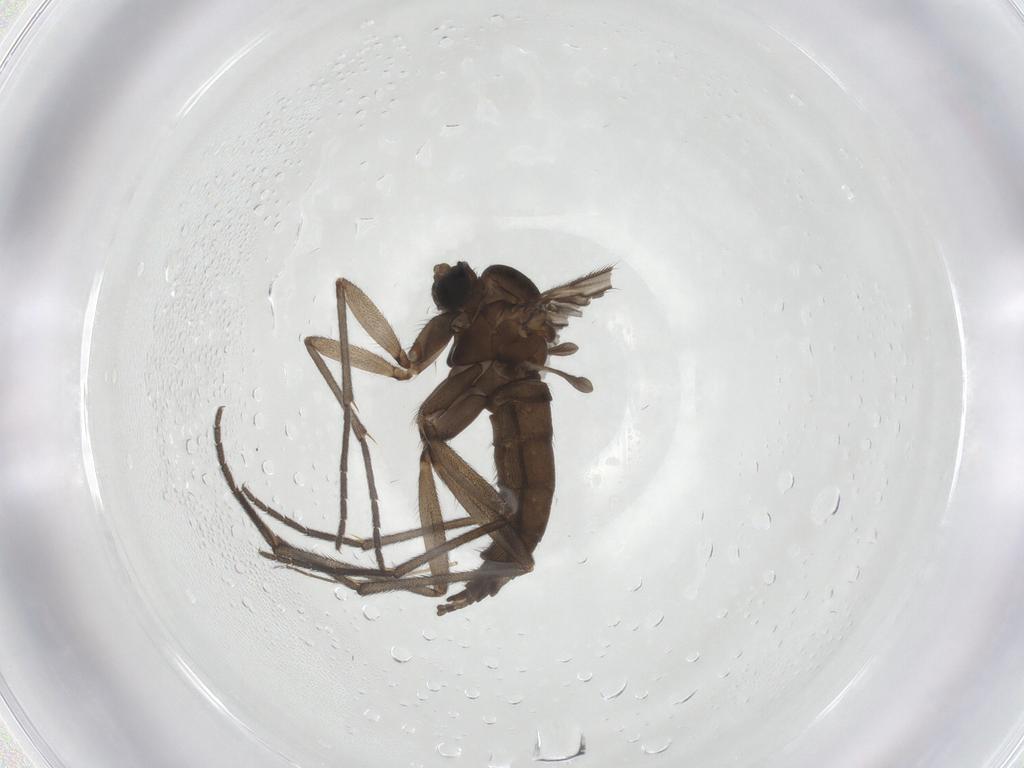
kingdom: Animalia
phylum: Arthropoda
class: Insecta
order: Diptera
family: Sciaridae
